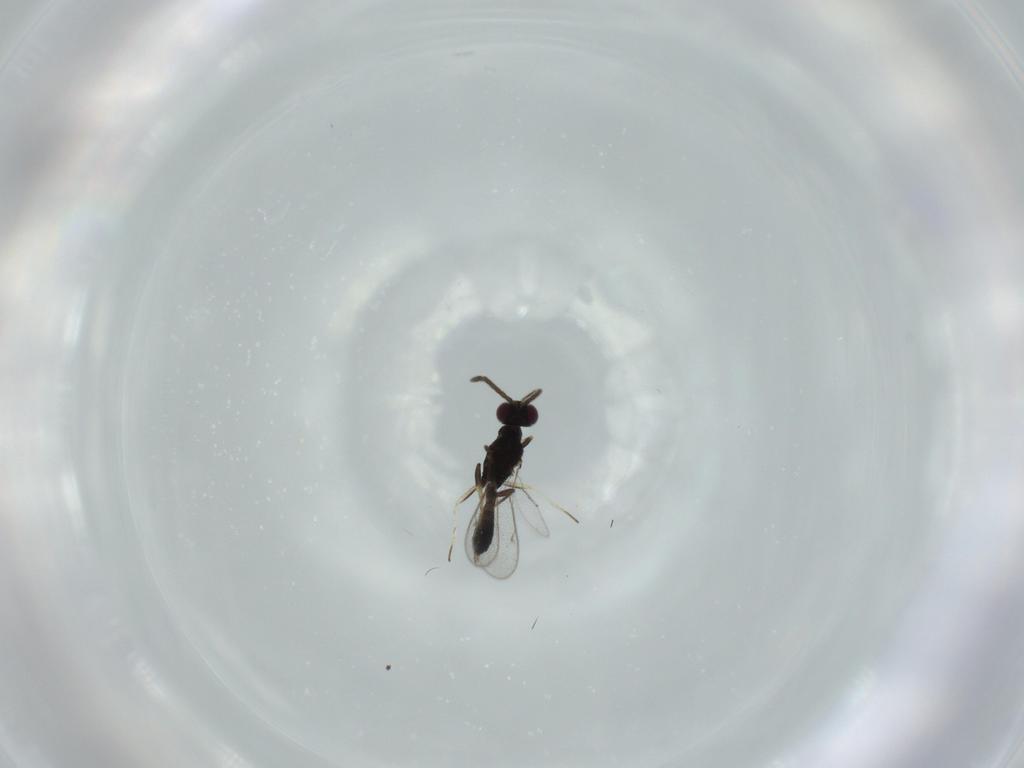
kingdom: Animalia
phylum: Arthropoda
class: Insecta
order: Hymenoptera
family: Eupelmidae
